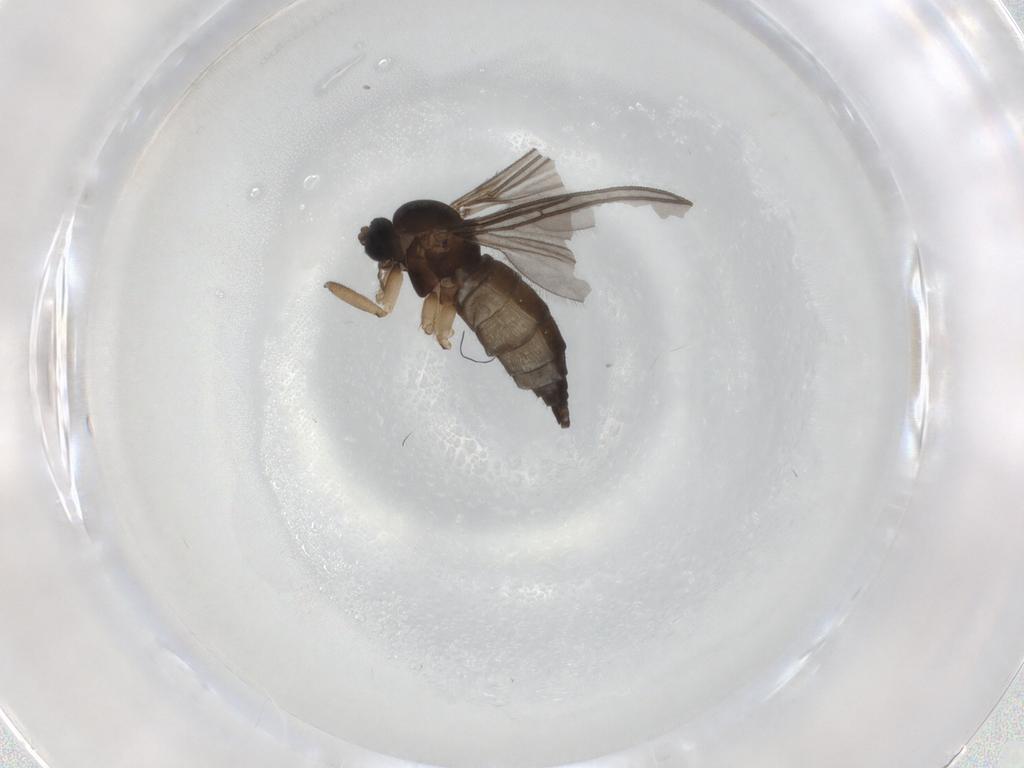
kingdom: Animalia
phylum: Arthropoda
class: Insecta
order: Diptera
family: Sciaridae
